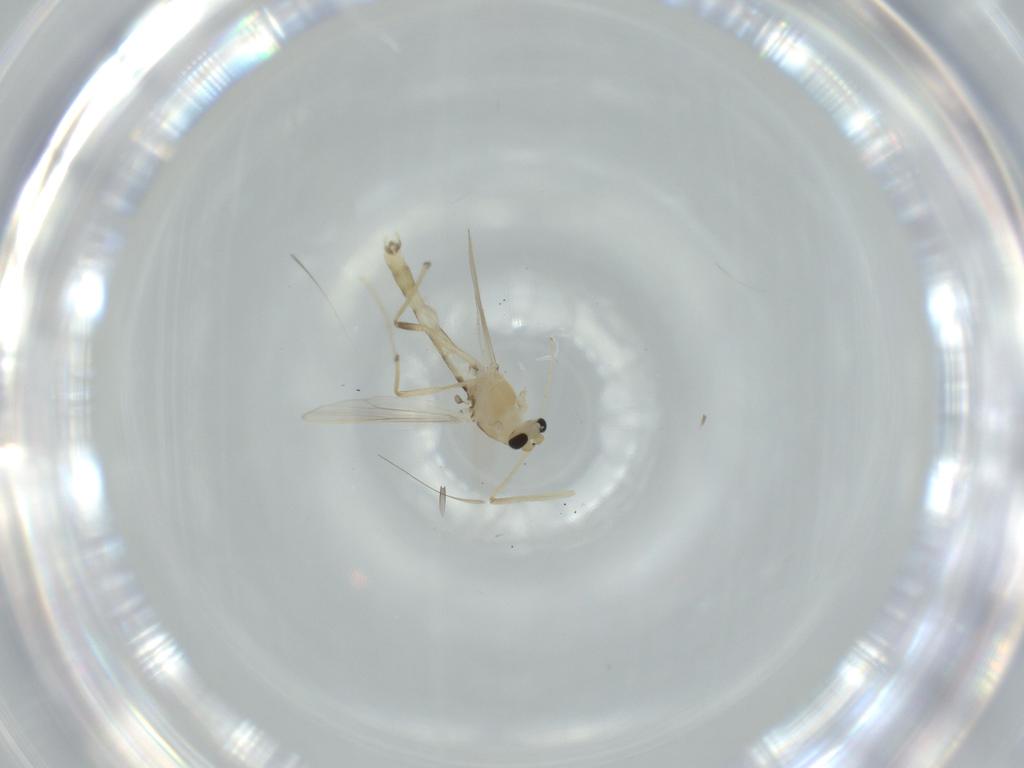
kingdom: Animalia
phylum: Arthropoda
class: Insecta
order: Diptera
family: Chironomidae
